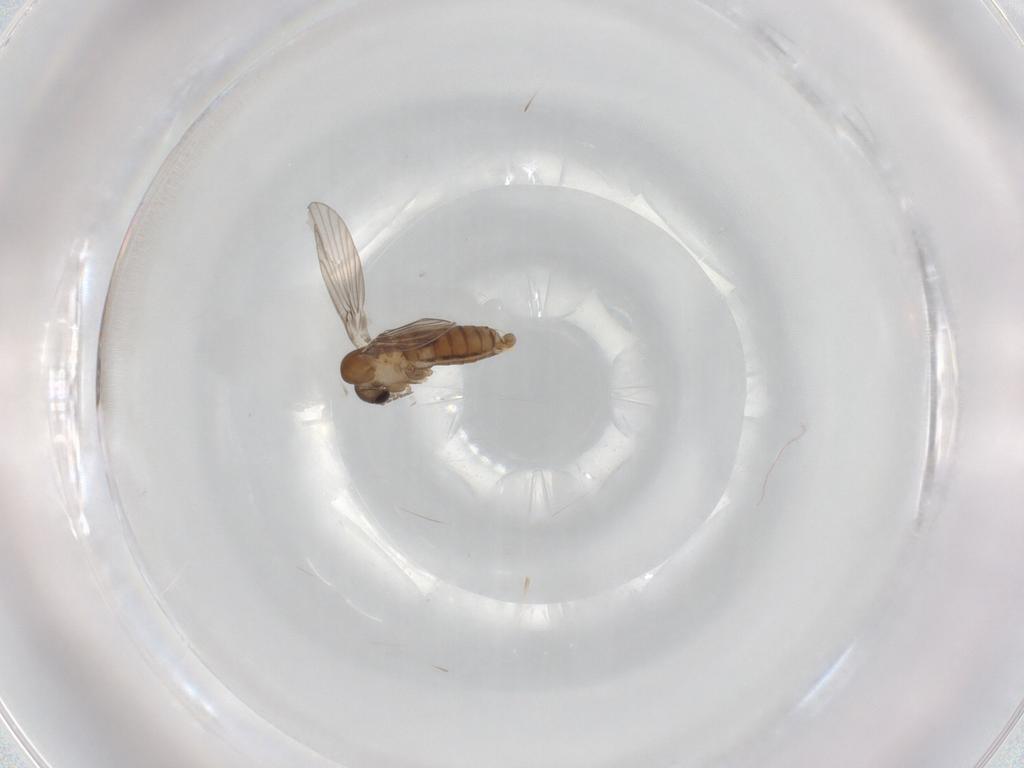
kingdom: Animalia
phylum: Arthropoda
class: Insecta
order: Diptera
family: Psychodidae
